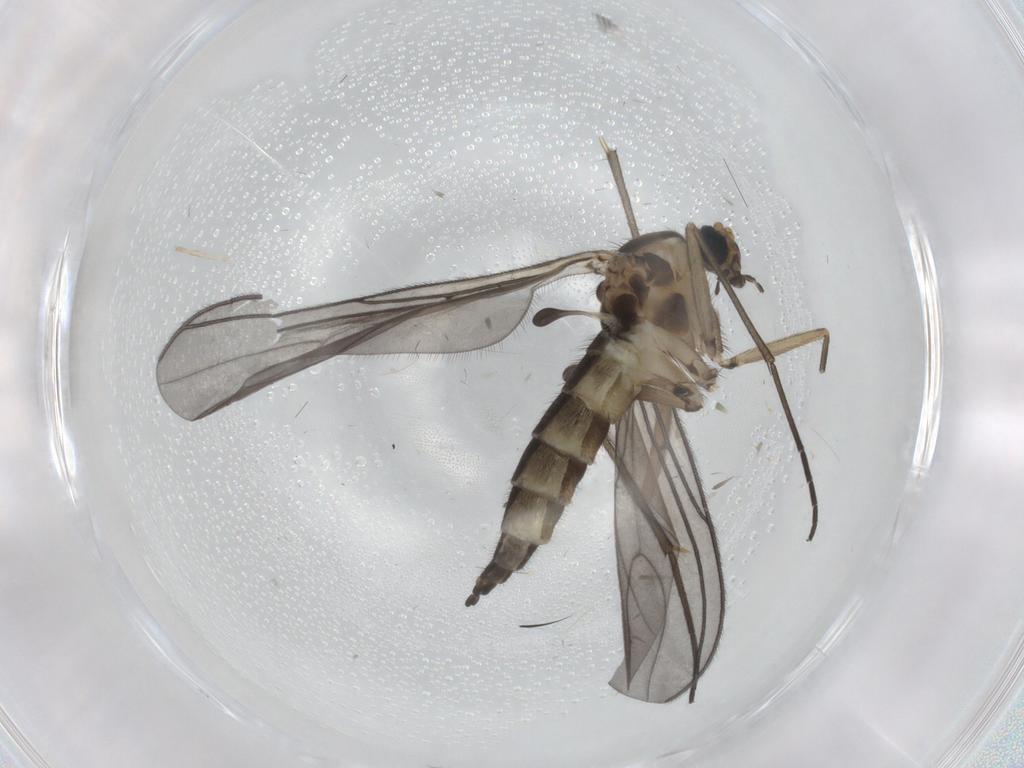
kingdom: Animalia
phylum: Arthropoda
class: Insecta
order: Diptera
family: Sciaridae
